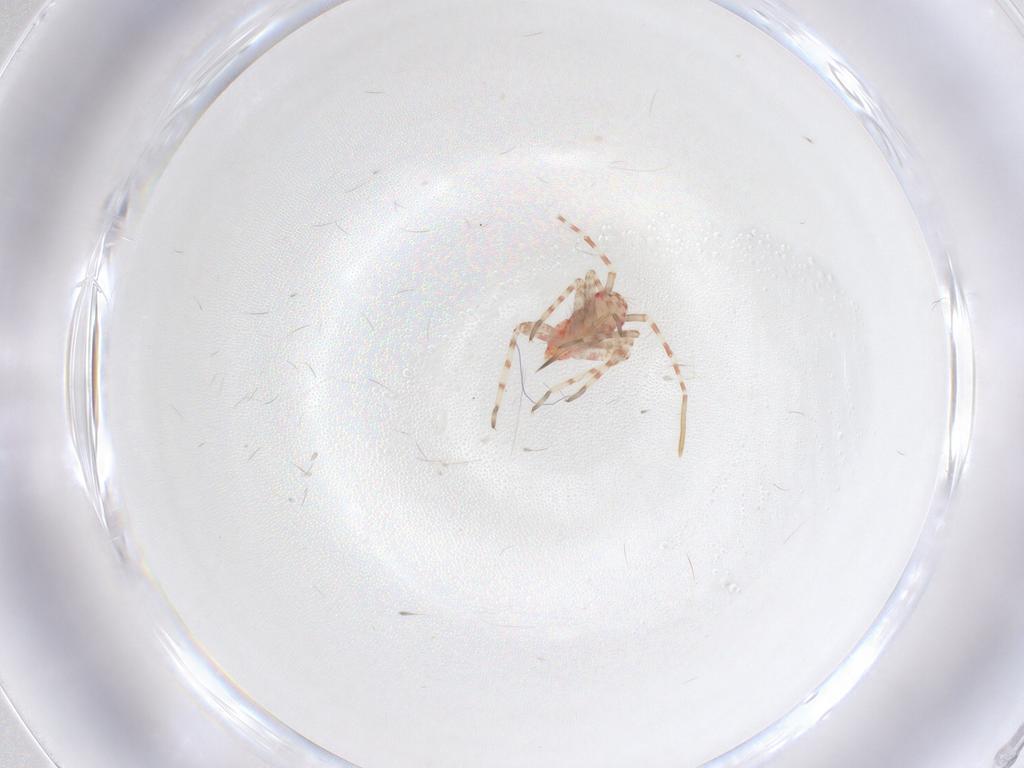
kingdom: Animalia
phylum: Arthropoda
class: Insecta
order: Hemiptera
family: Miridae
